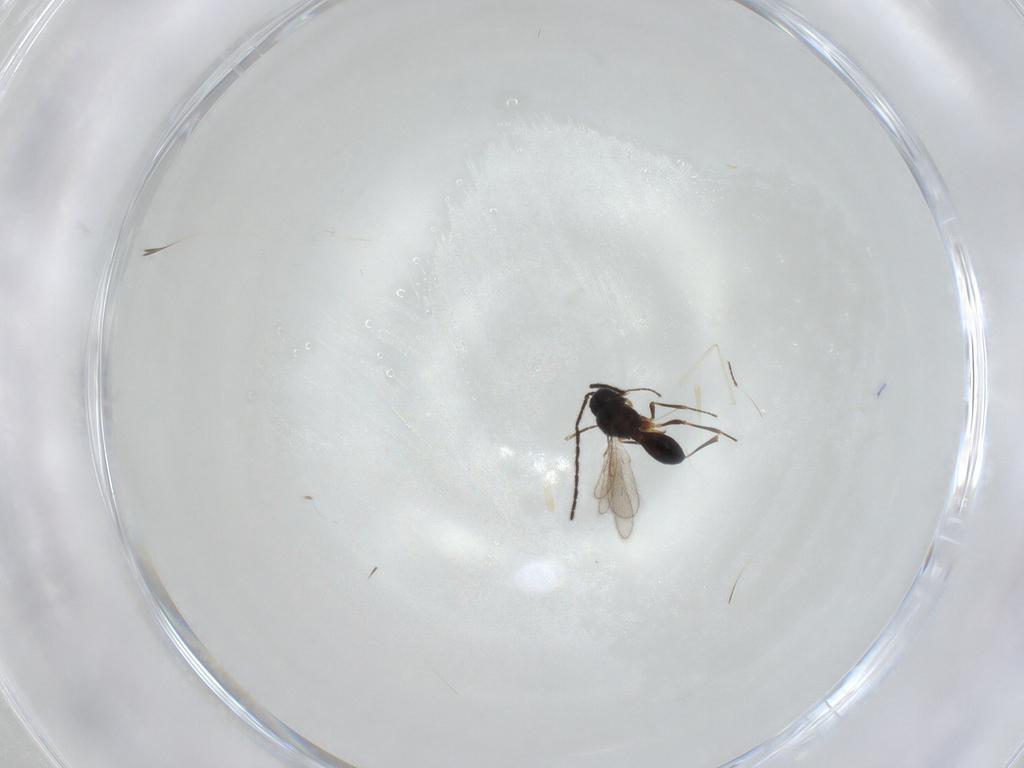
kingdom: Animalia
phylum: Arthropoda
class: Insecta
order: Hymenoptera
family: Scelionidae
